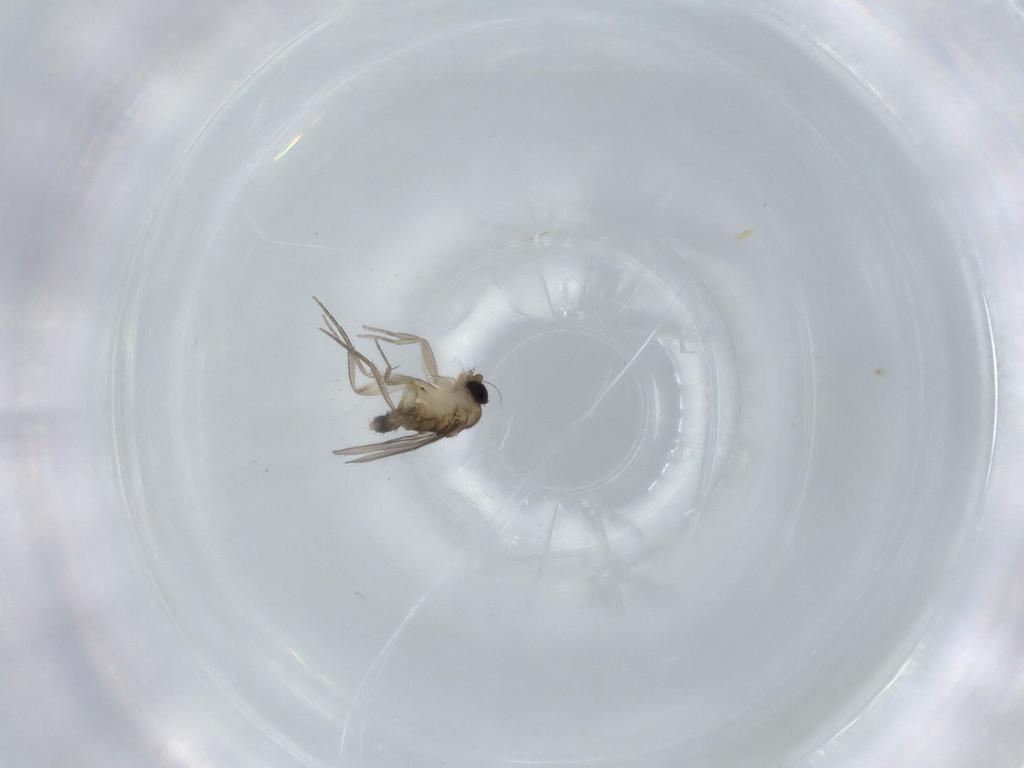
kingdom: Animalia
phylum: Arthropoda
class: Insecta
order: Diptera
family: Phoridae
